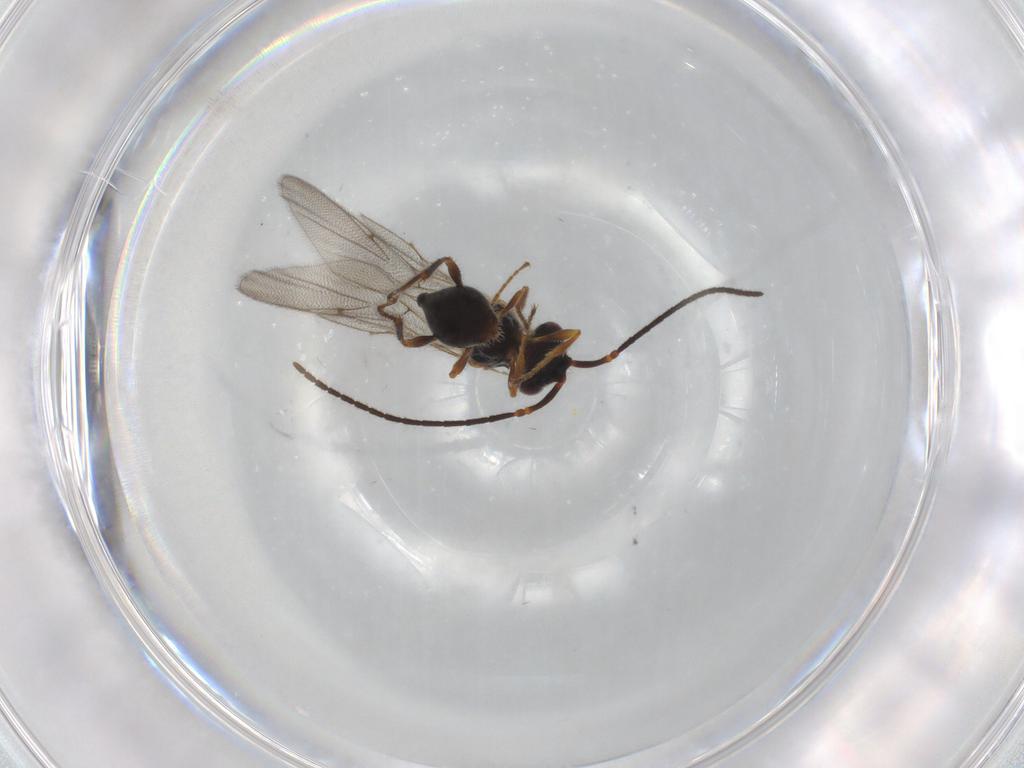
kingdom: Animalia
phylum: Arthropoda
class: Insecta
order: Hymenoptera
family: Diapriidae
